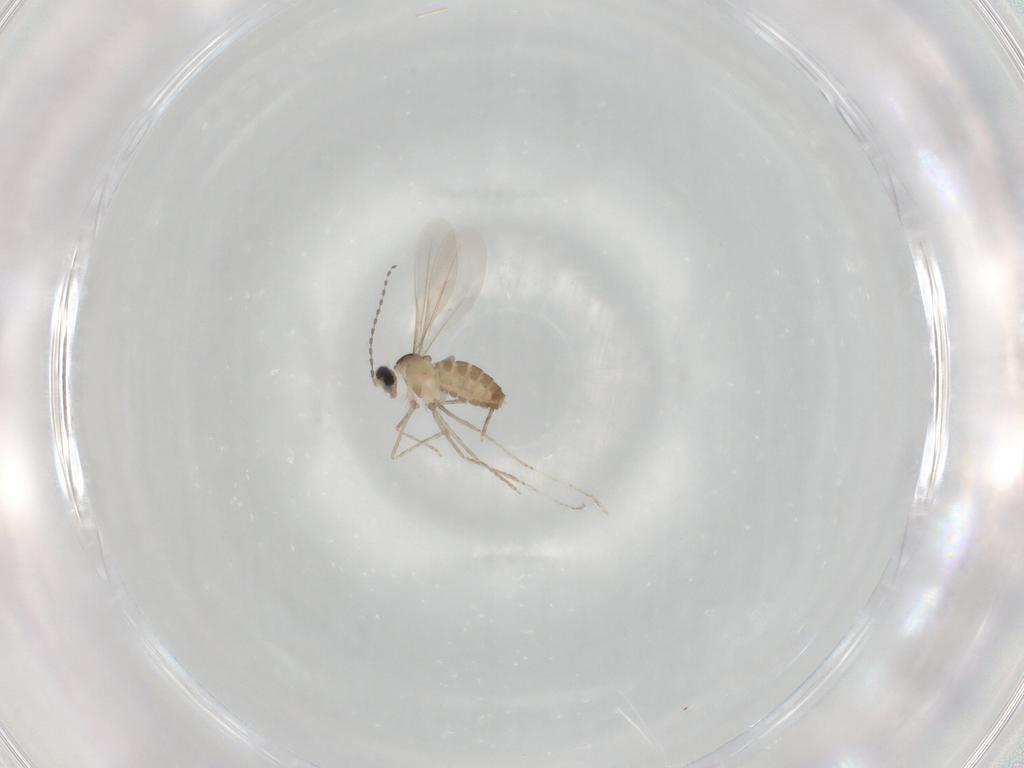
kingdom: Animalia
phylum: Arthropoda
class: Insecta
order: Diptera
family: Cecidomyiidae
